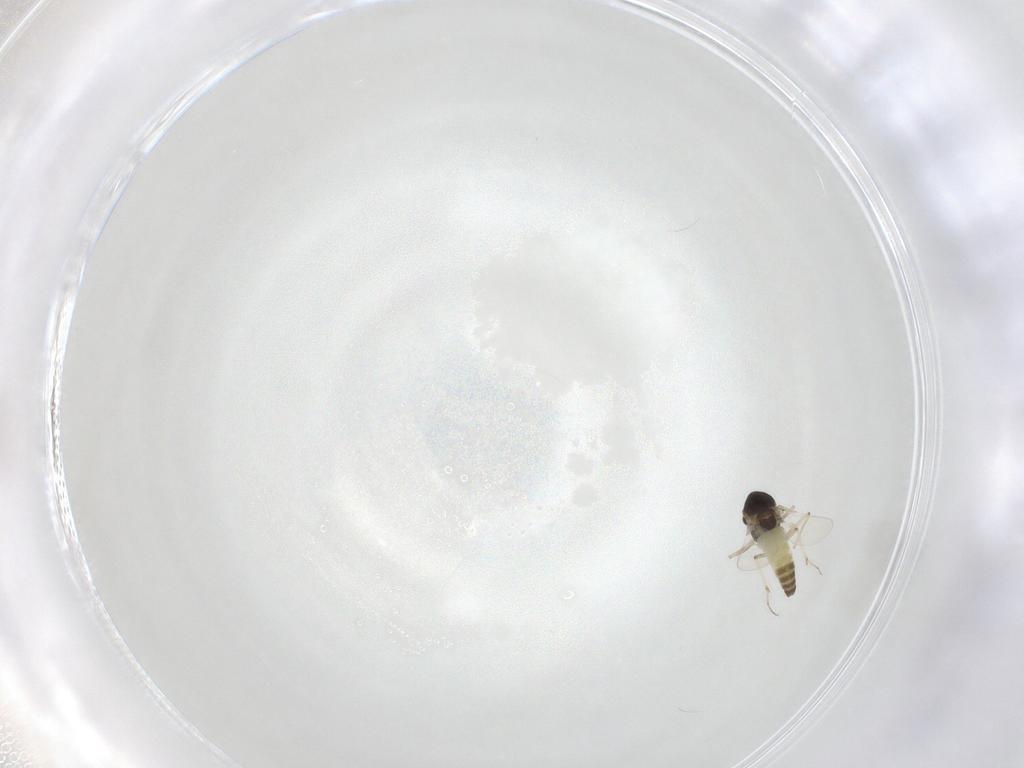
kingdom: Animalia
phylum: Arthropoda
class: Insecta
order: Diptera
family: Chironomidae
